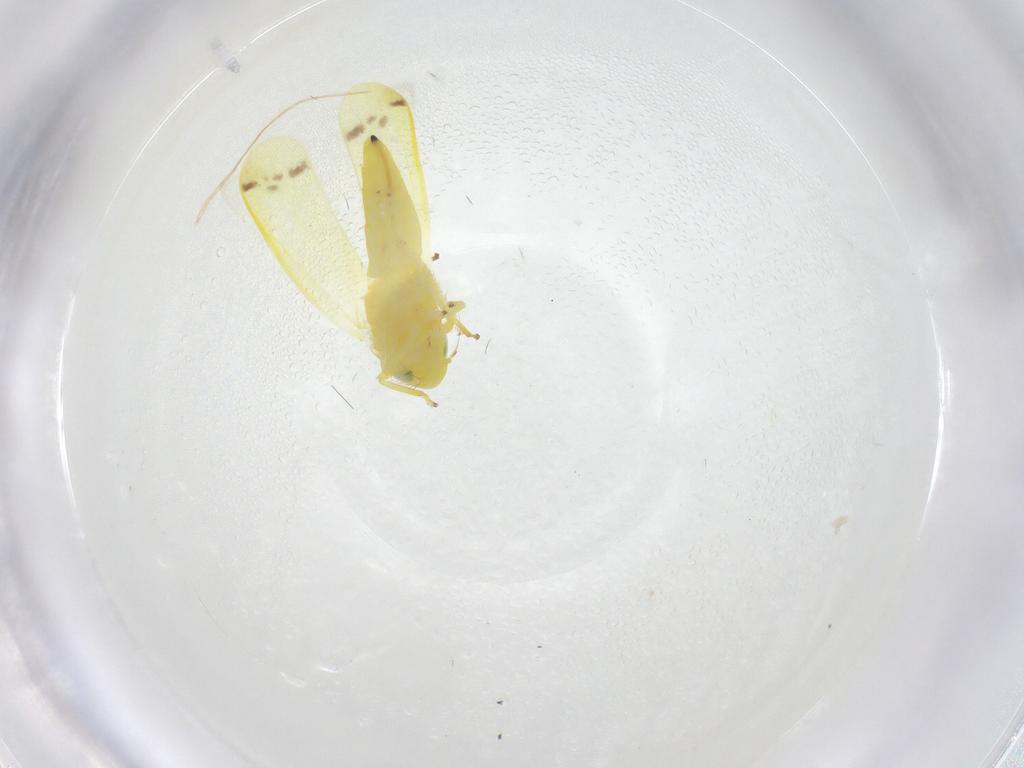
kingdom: Animalia
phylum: Arthropoda
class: Insecta
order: Hemiptera
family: Cicadellidae
